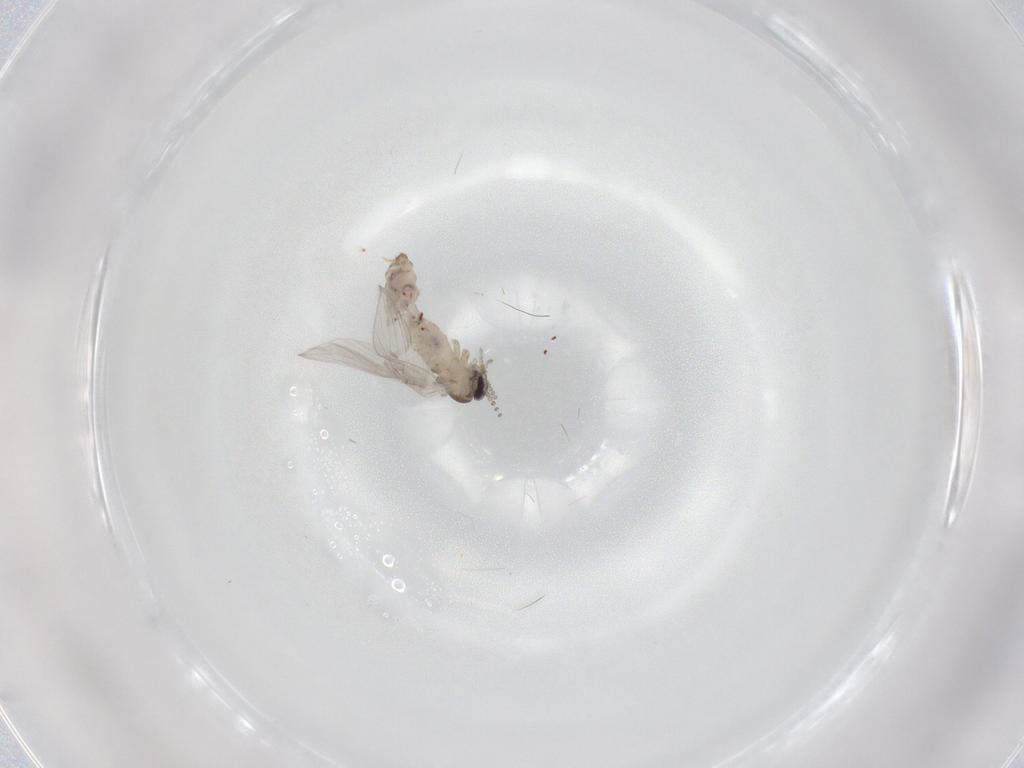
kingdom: Animalia
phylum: Arthropoda
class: Insecta
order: Diptera
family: Psychodidae
